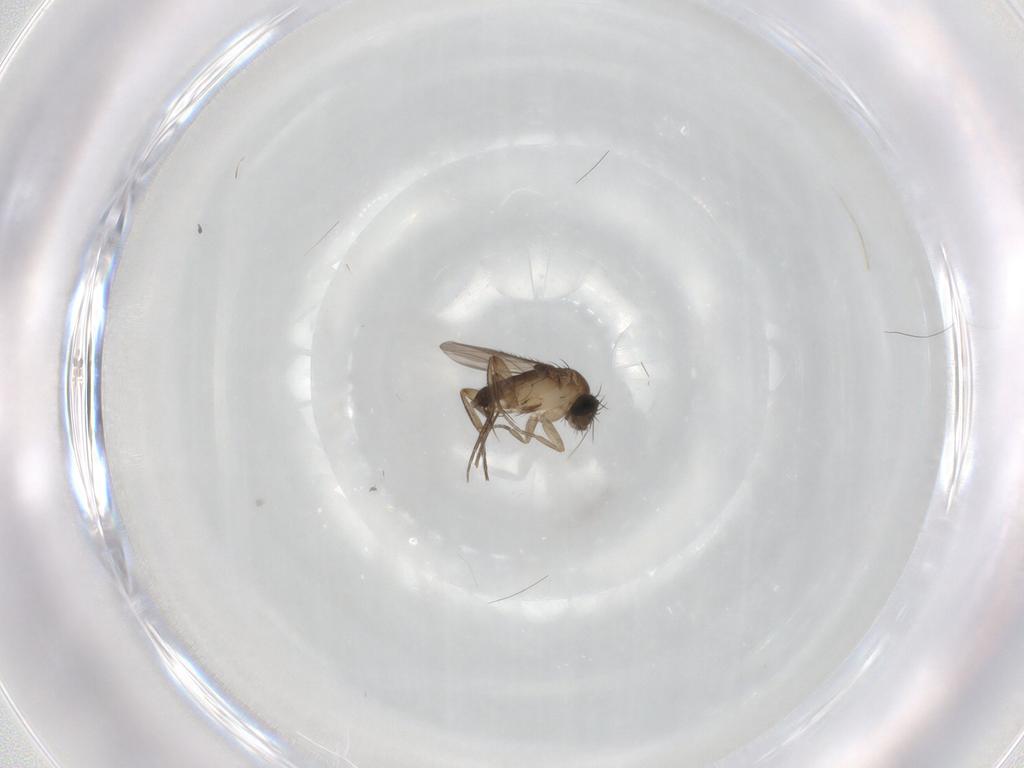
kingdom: Animalia
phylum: Arthropoda
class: Insecta
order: Diptera
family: Phoridae
